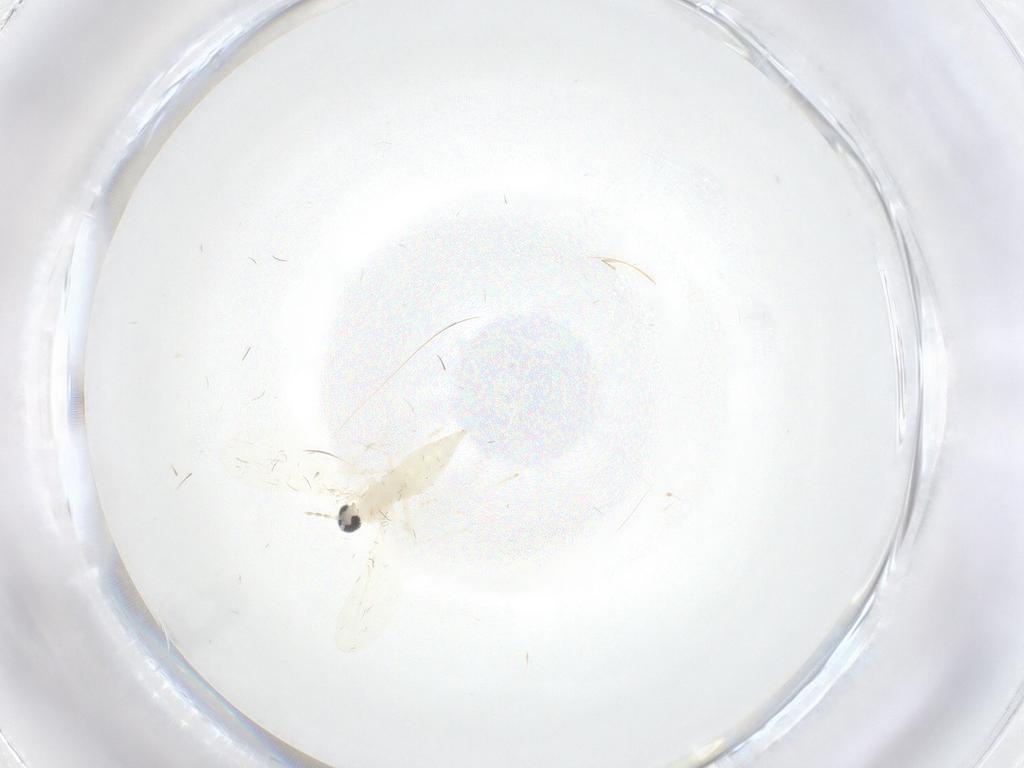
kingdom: Animalia
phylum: Arthropoda
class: Insecta
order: Diptera
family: Cecidomyiidae
